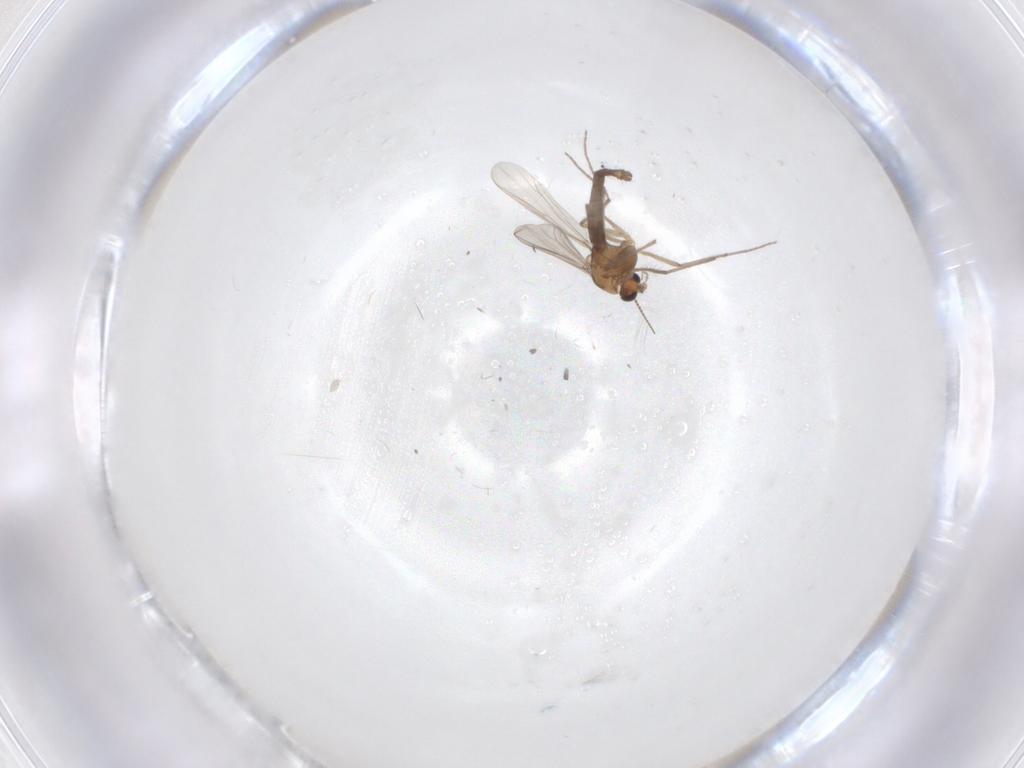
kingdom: Animalia
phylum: Arthropoda
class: Insecta
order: Diptera
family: Chironomidae
